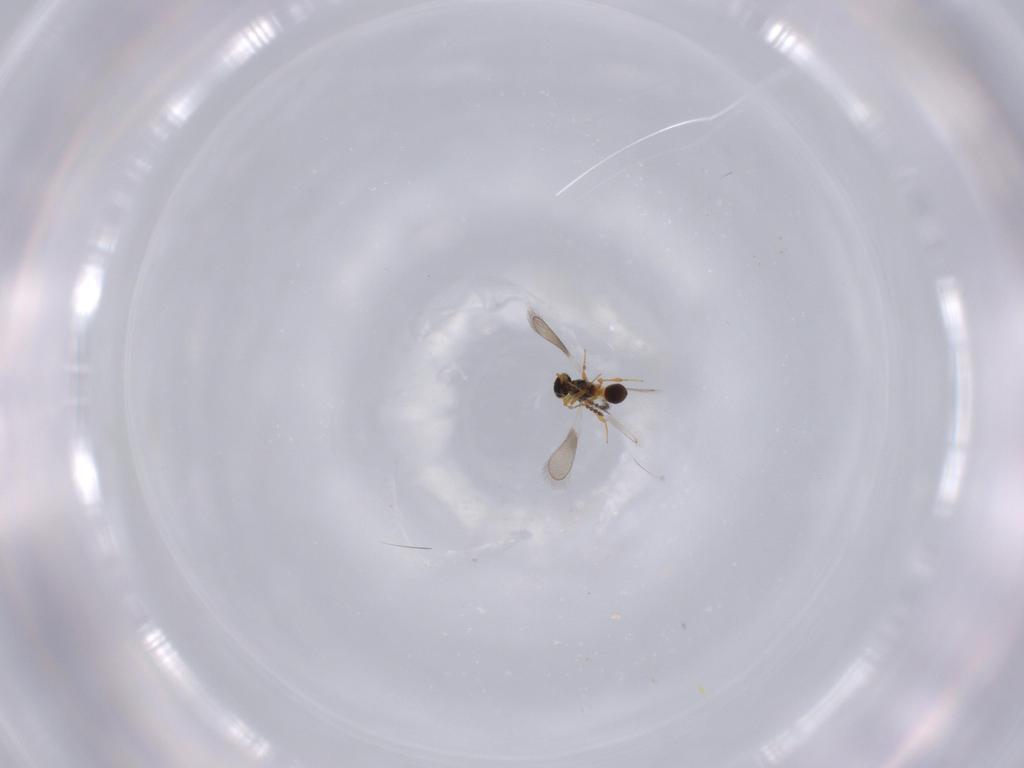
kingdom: Animalia
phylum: Arthropoda
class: Insecta
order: Hymenoptera
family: Platygastridae
